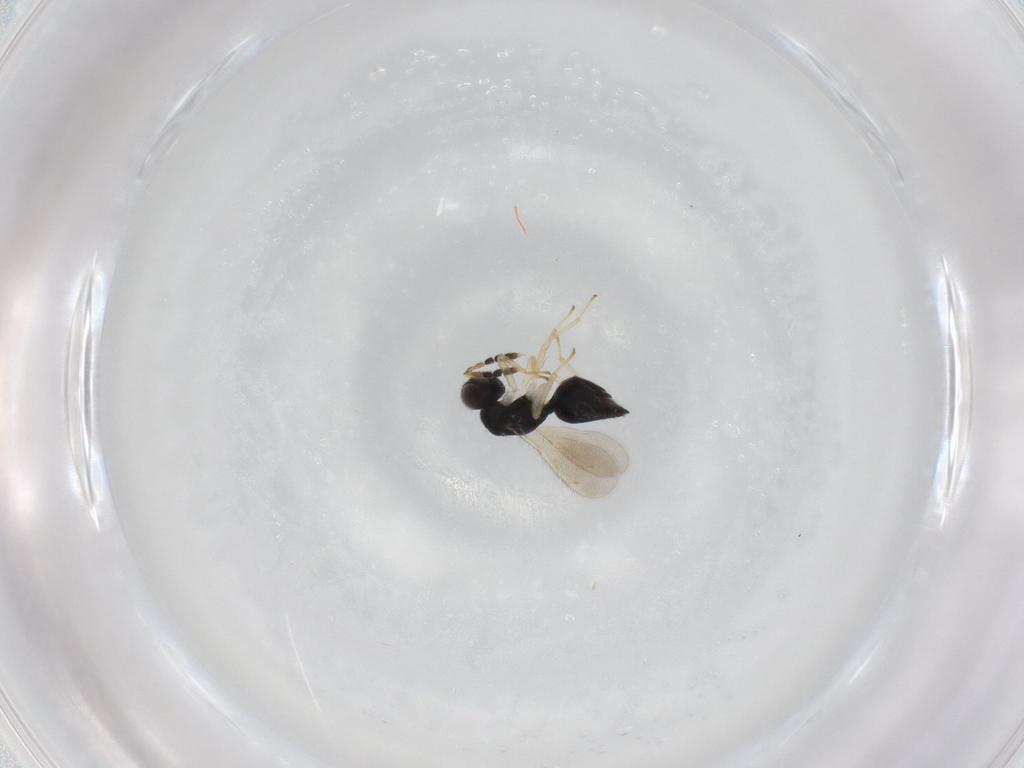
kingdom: Animalia
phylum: Arthropoda
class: Insecta
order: Hymenoptera
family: Eulophidae
